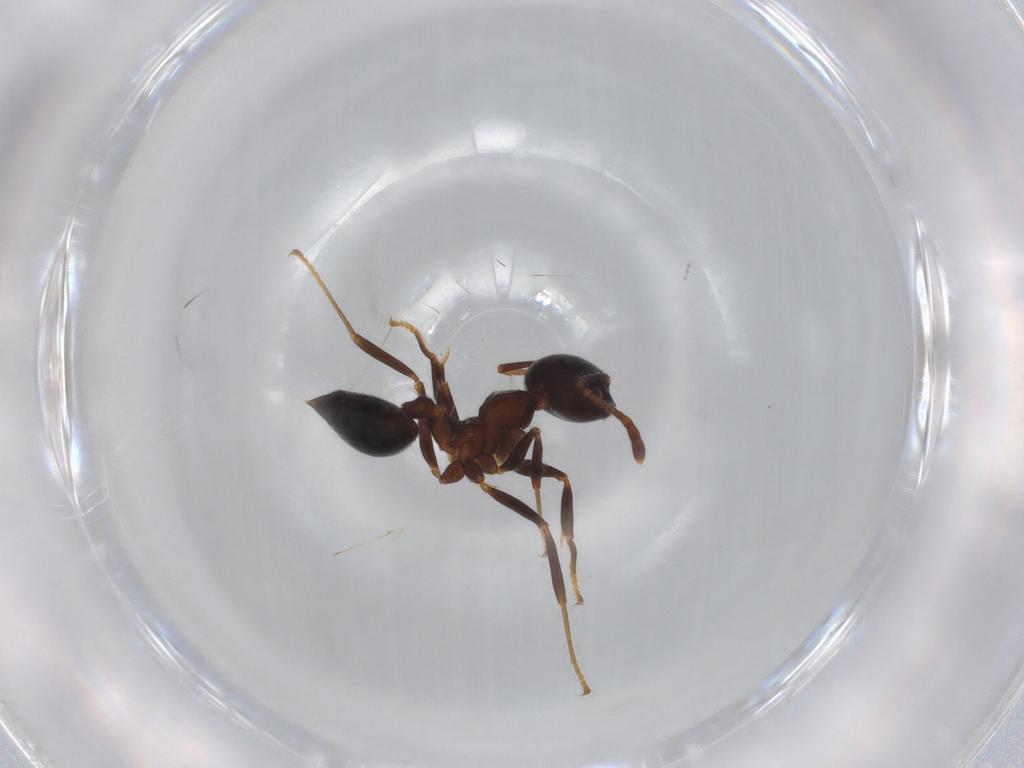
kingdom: Animalia
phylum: Arthropoda
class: Insecta
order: Hymenoptera
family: Formicidae
